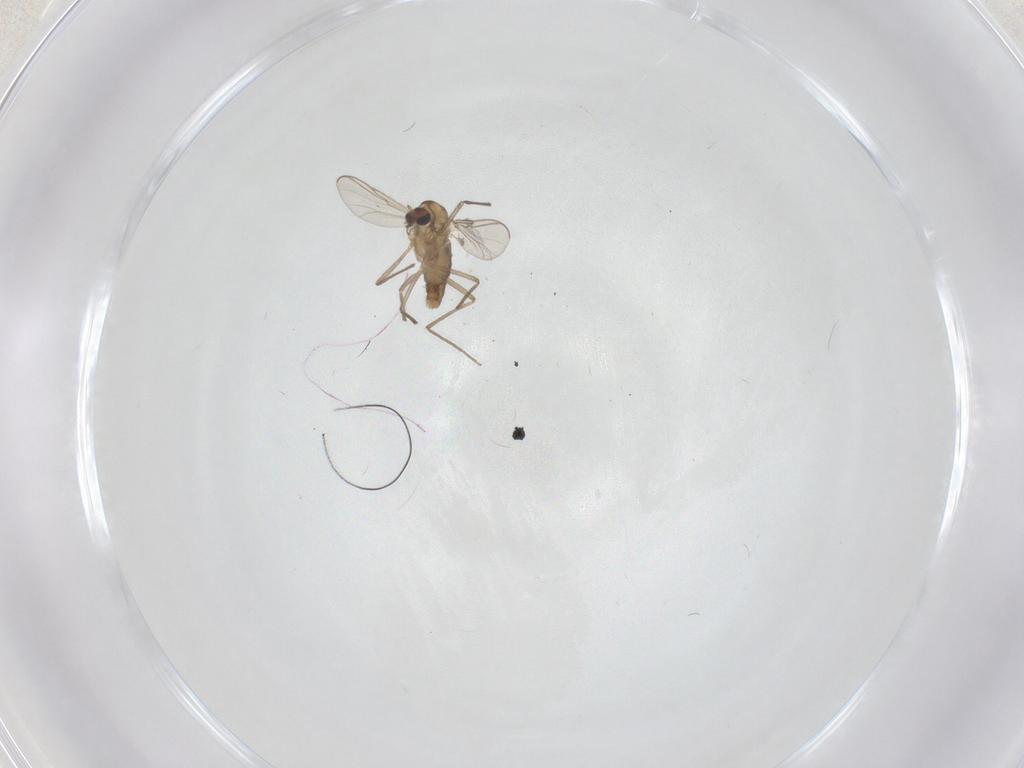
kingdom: Animalia
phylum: Arthropoda
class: Insecta
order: Diptera
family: Chironomidae
